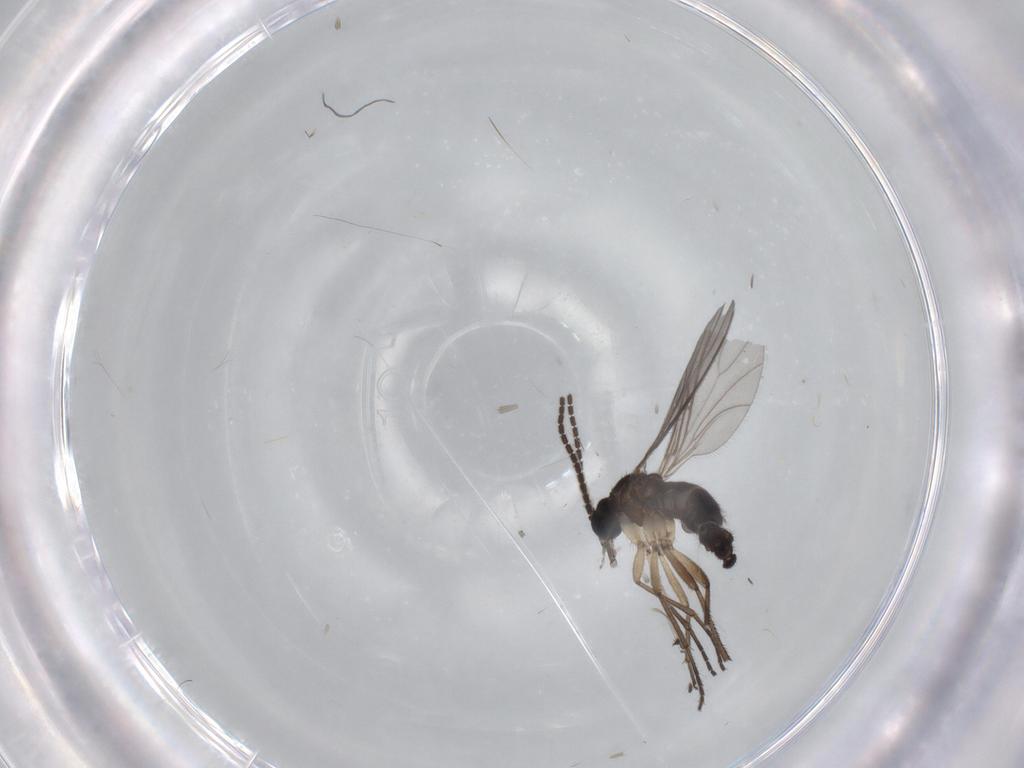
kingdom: Animalia
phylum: Arthropoda
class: Insecta
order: Diptera
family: Sciaridae
